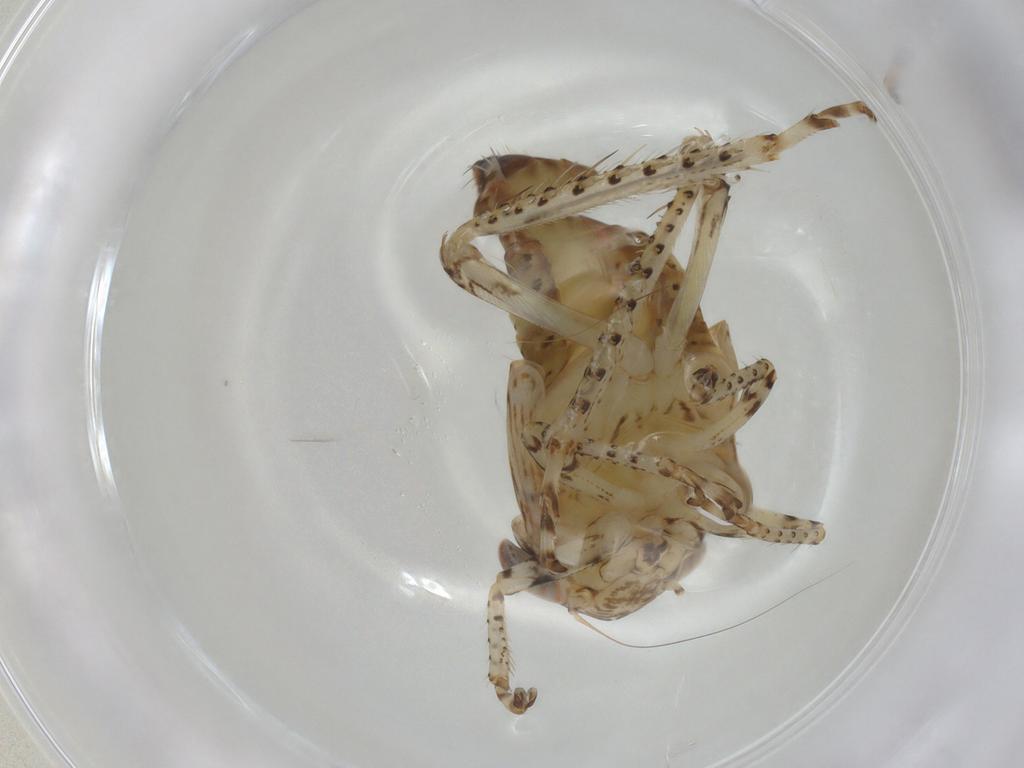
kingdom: Animalia
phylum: Arthropoda
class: Insecta
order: Hemiptera
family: Cicadellidae
